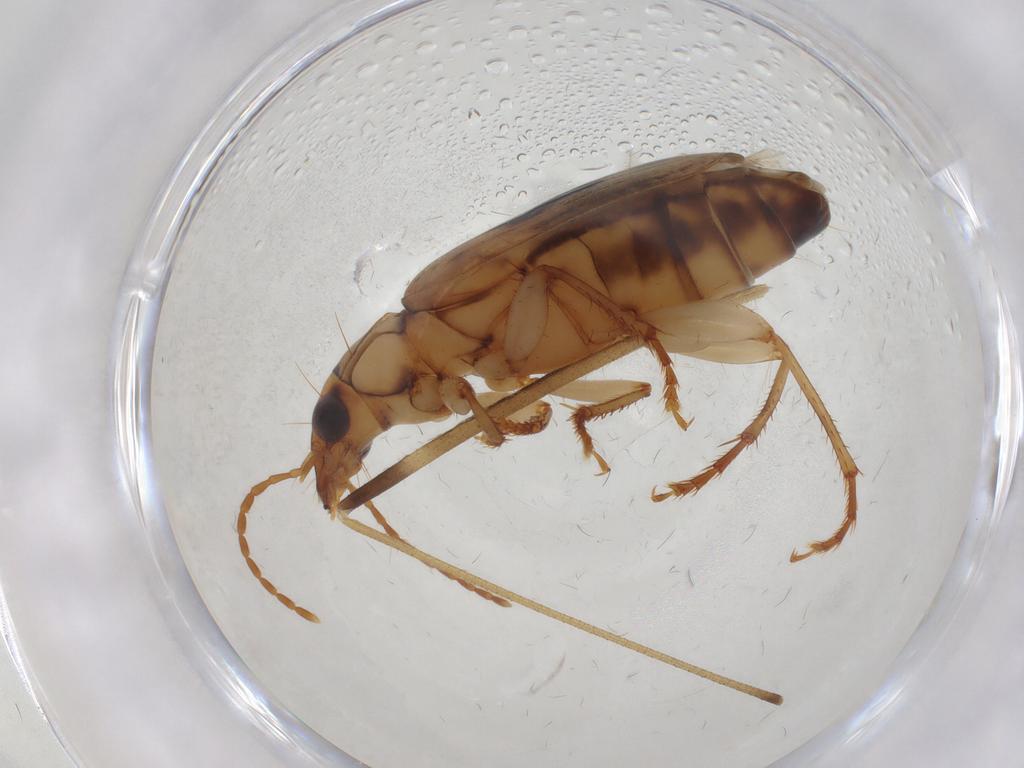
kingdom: Animalia
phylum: Arthropoda
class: Insecta
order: Coleoptera
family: Carabidae
